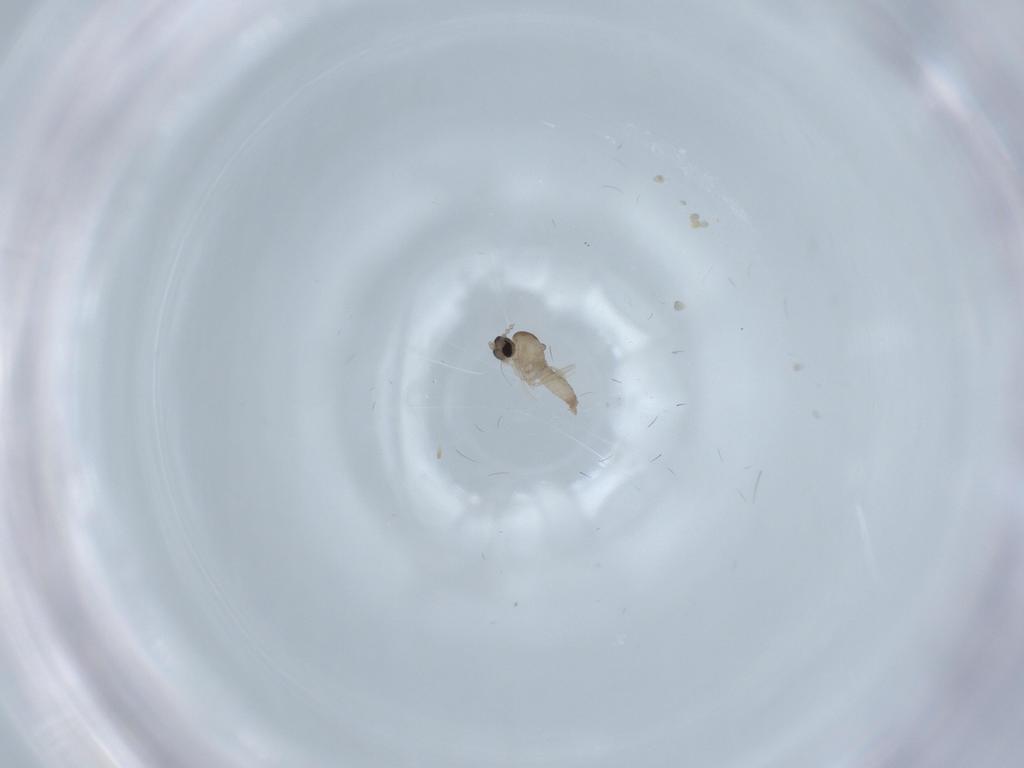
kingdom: Animalia
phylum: Arthropoda
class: Insecta
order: Diptera
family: Cecidomyiidae
